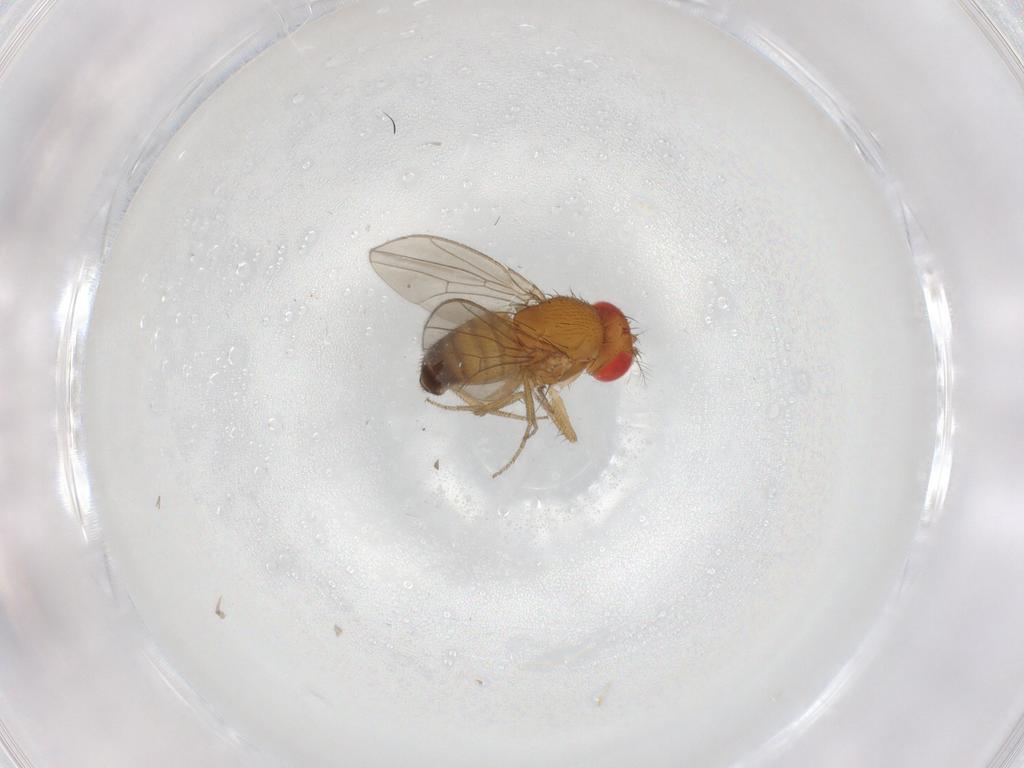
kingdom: Animalia
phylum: Arthropoda
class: Insecta
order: Diptera
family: Drosophilidae
